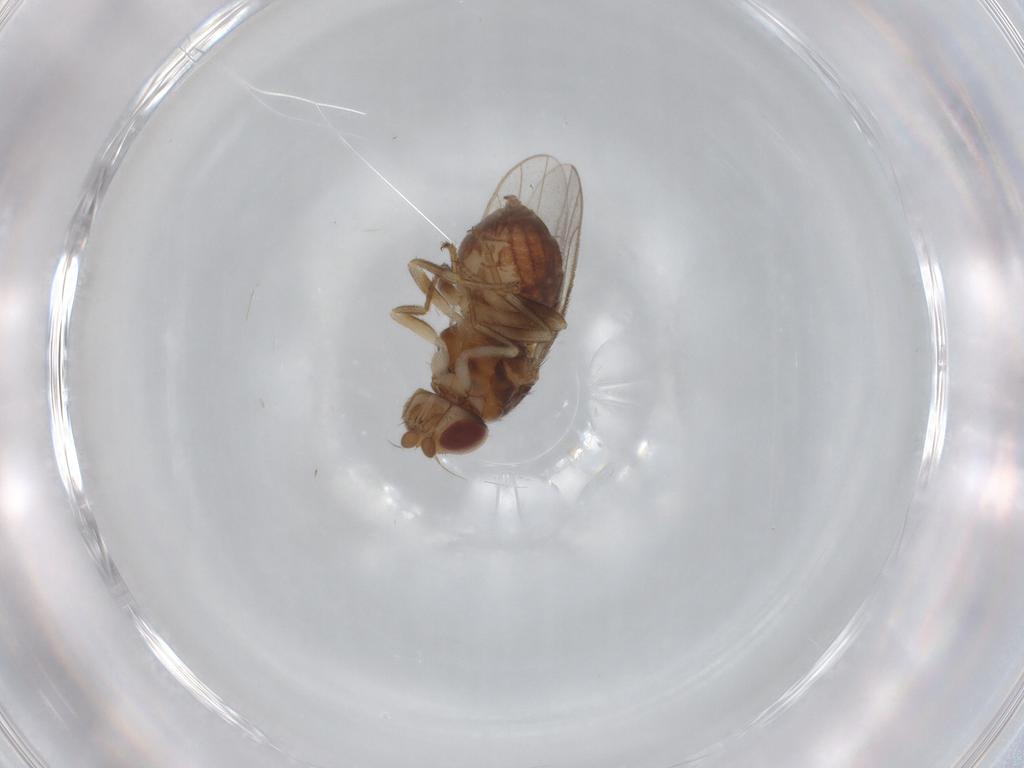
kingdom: Animalia
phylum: Arthropoda
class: Insecta
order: Diptera
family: Chloropidae
